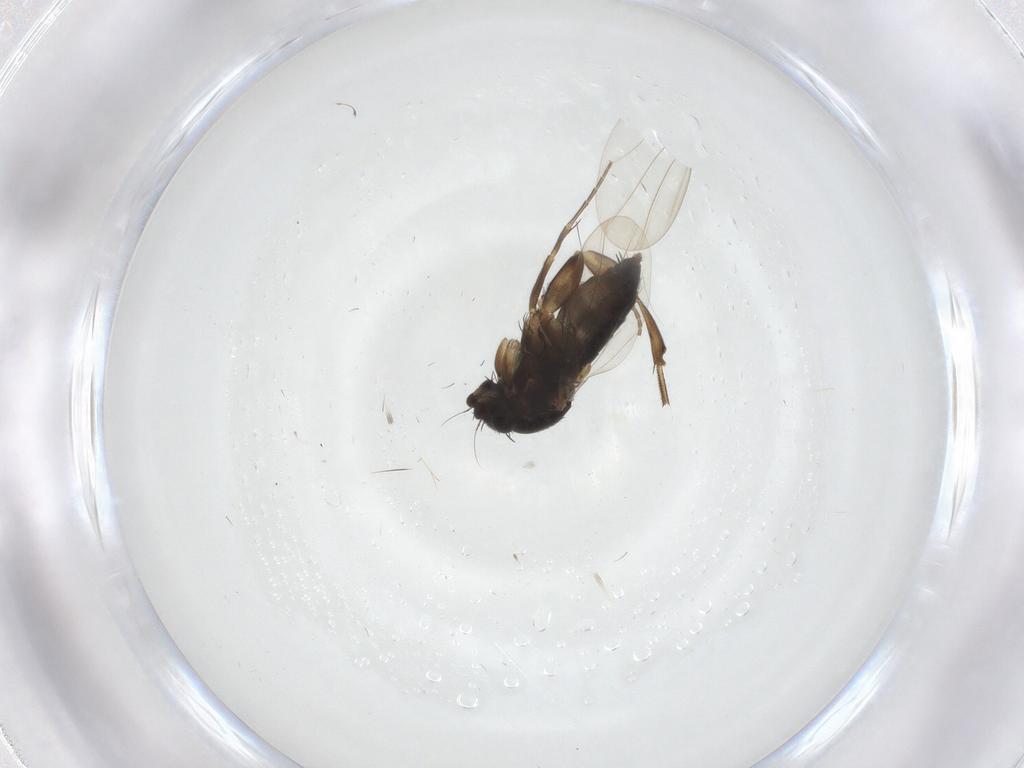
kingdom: Animalia
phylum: Arthropoda
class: Insecta
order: Diptera
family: Phoridae
